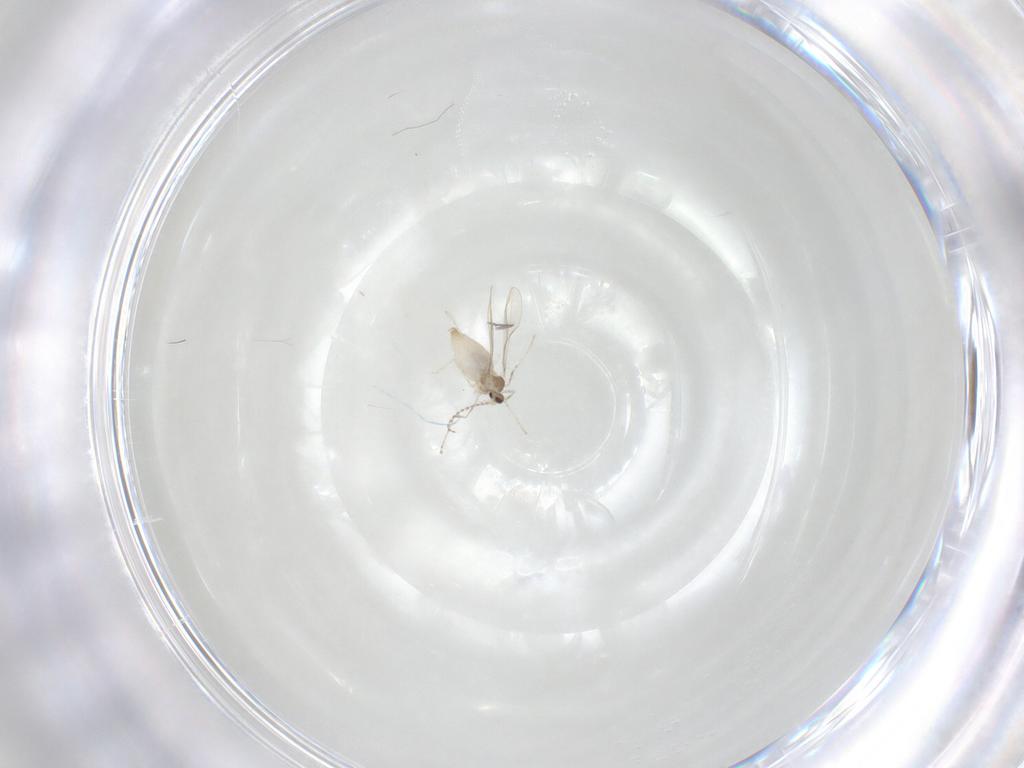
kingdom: Animalia
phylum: Arthropoda
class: Insecta
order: Diptera
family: Cecidomyiidae
